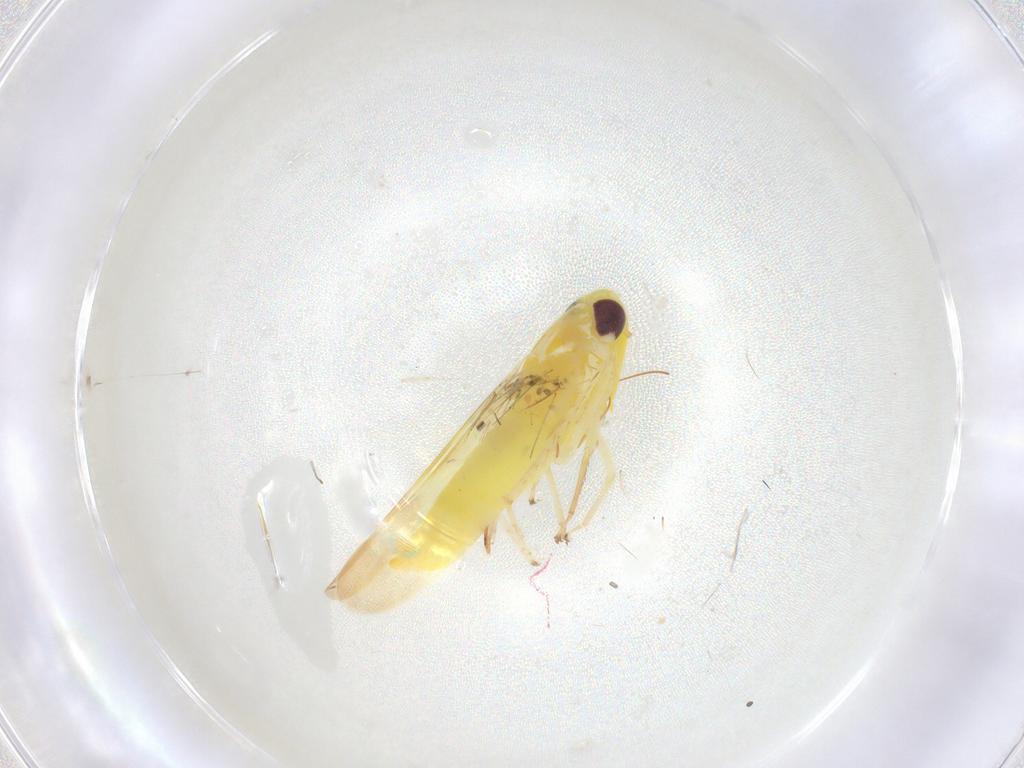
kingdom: Animalia
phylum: Arthropoda
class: Insecta
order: Hemiptera
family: Cicadellidae
